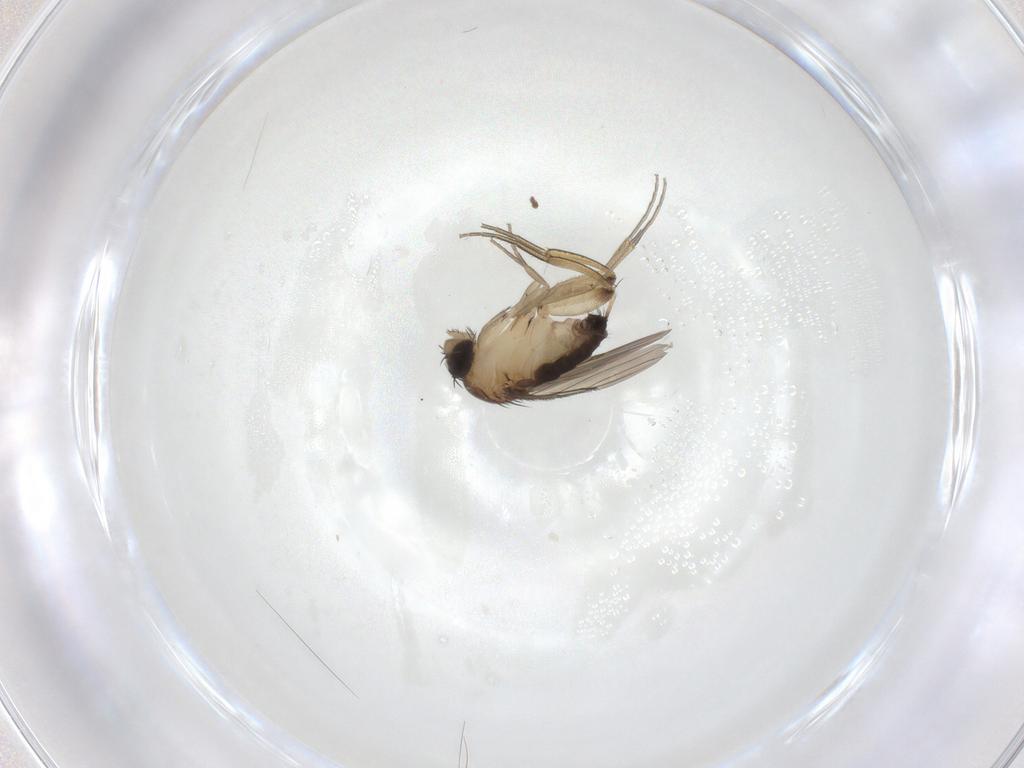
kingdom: Animalia
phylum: Arthropoda
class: Insecta
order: Diptera
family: Phoridae
